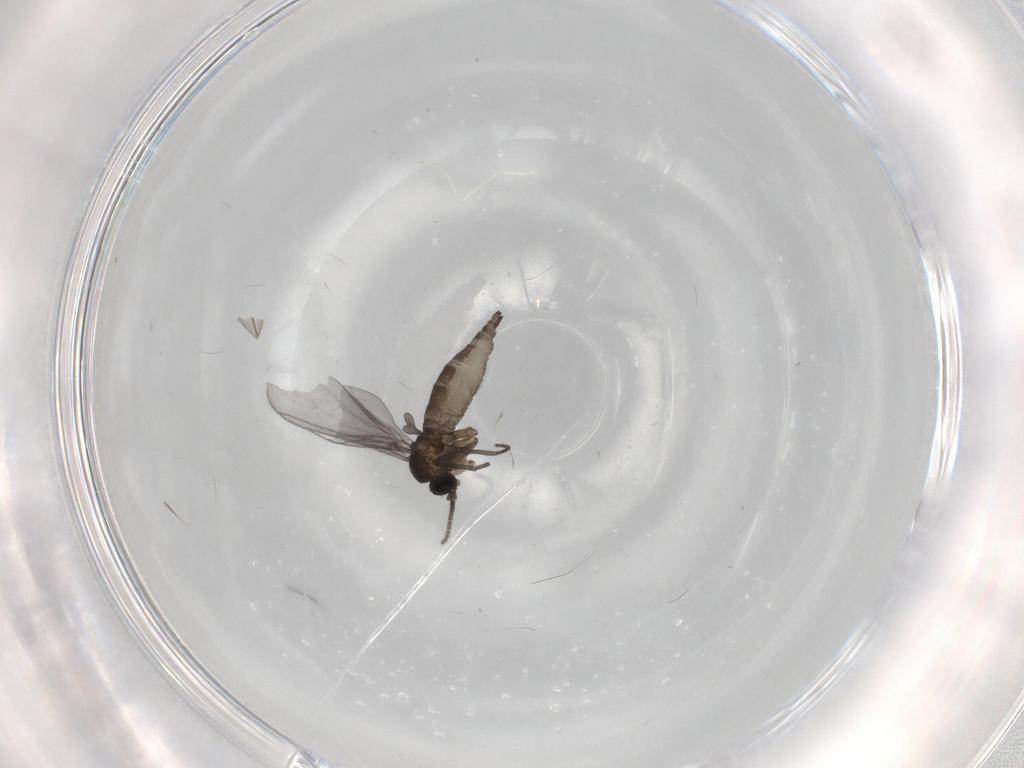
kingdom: Animalia
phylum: Arthropoda
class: Insecta
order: Diptera
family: Cecidomyiidae
